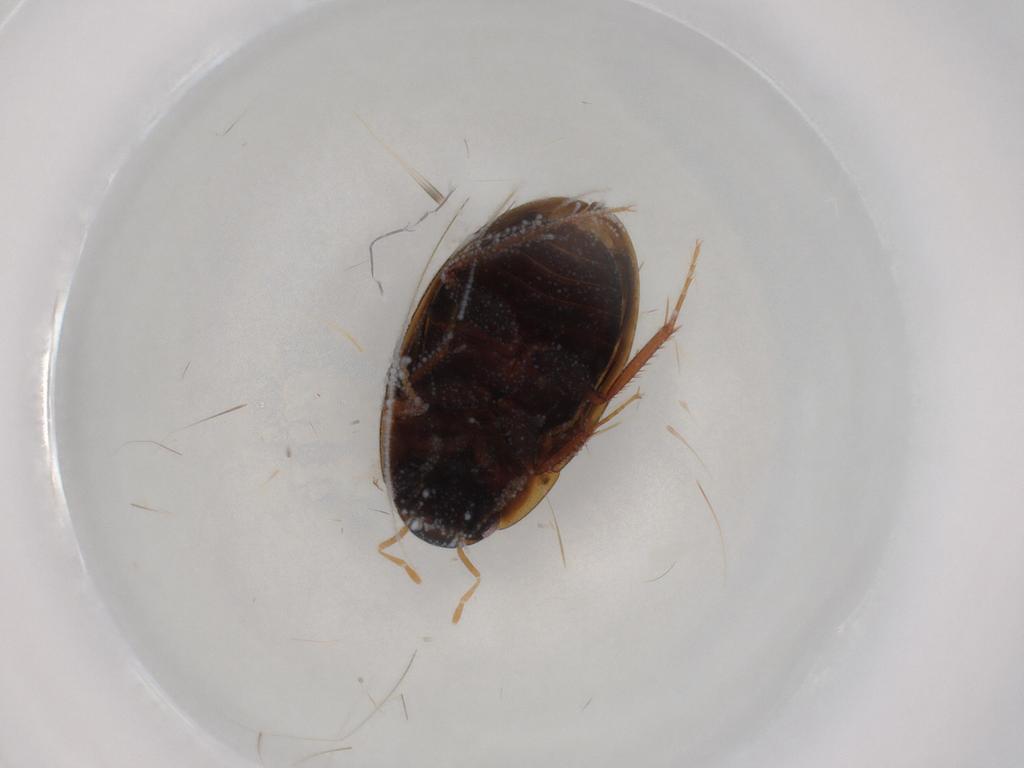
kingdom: Animalia
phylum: Arthropoda
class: Insecta
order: Coleoptera
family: Chrysomelidae
